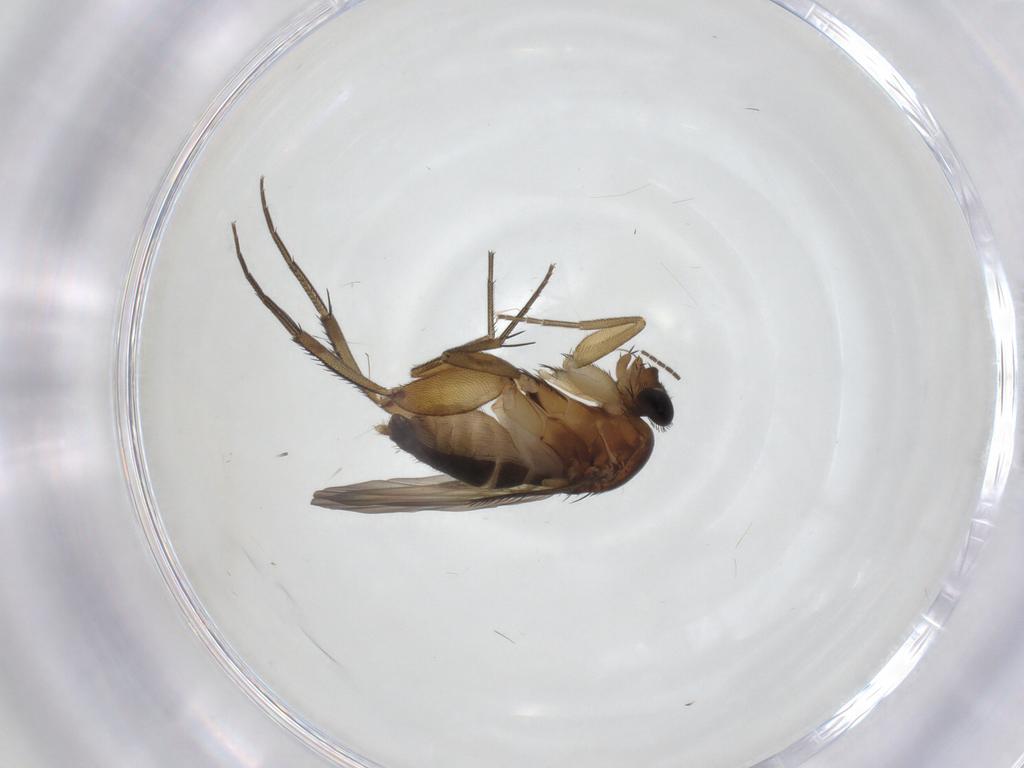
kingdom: Animalia
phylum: Arthropoda
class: Insecta
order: Diptera
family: Phoridae
